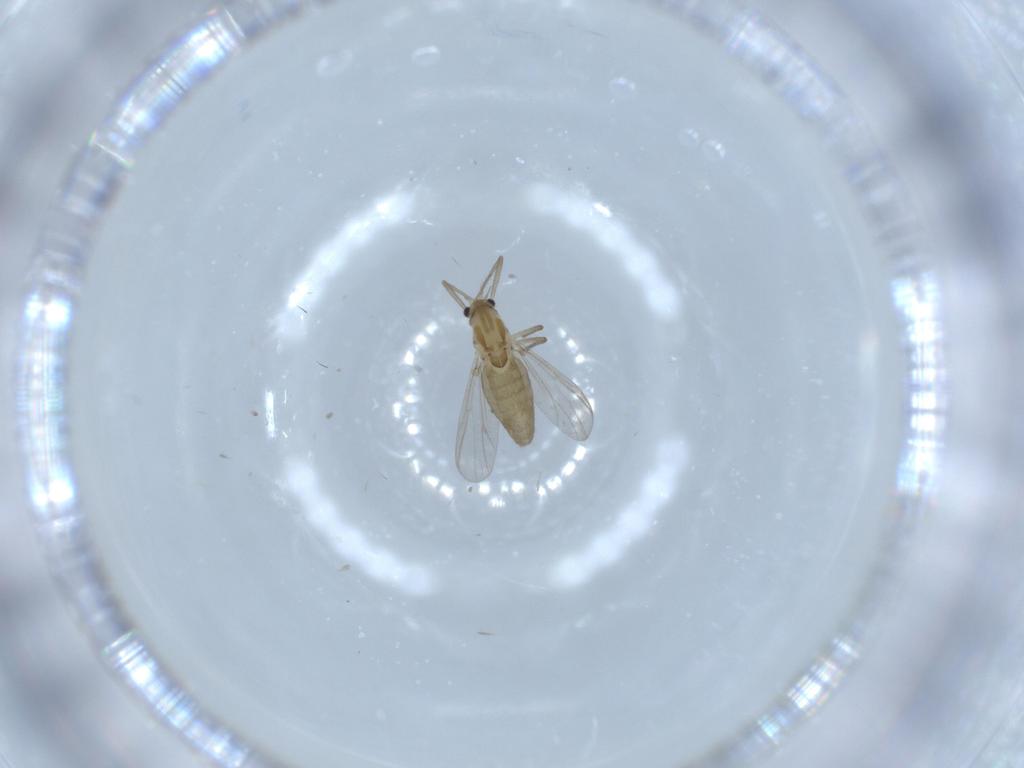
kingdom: Animalia
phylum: Arthropoda
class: Insecta
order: Diptera
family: Chironomidae
